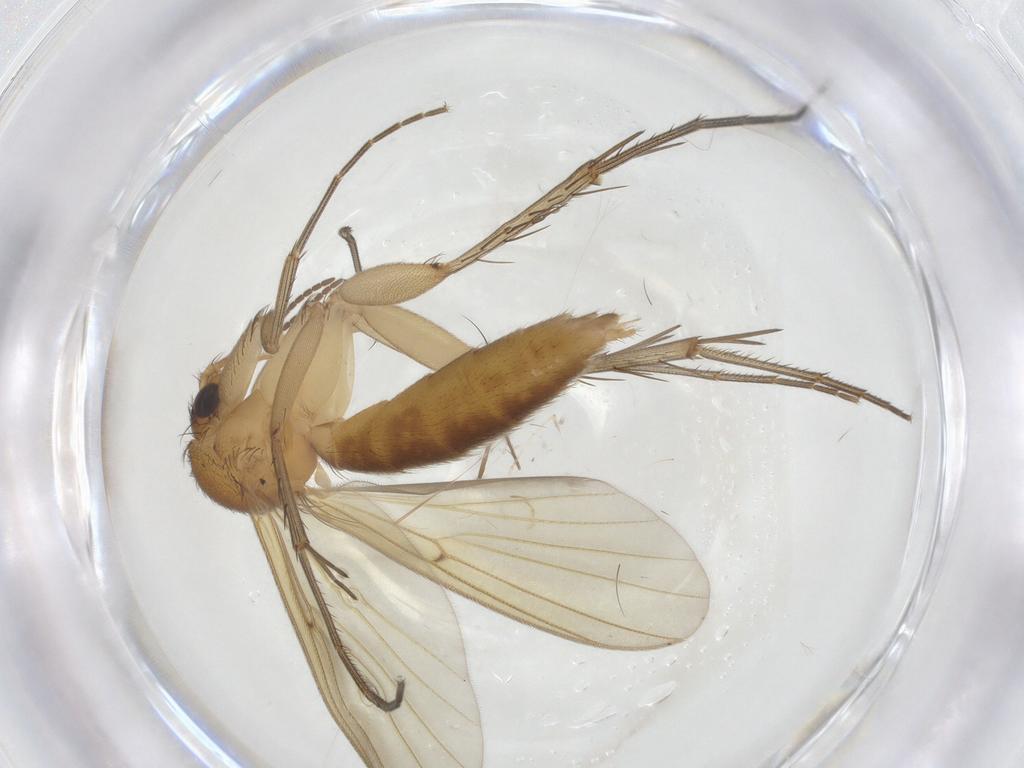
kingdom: Animalia
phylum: Arthropoda
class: Insecta
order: Diptera
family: Mycetophilidae
